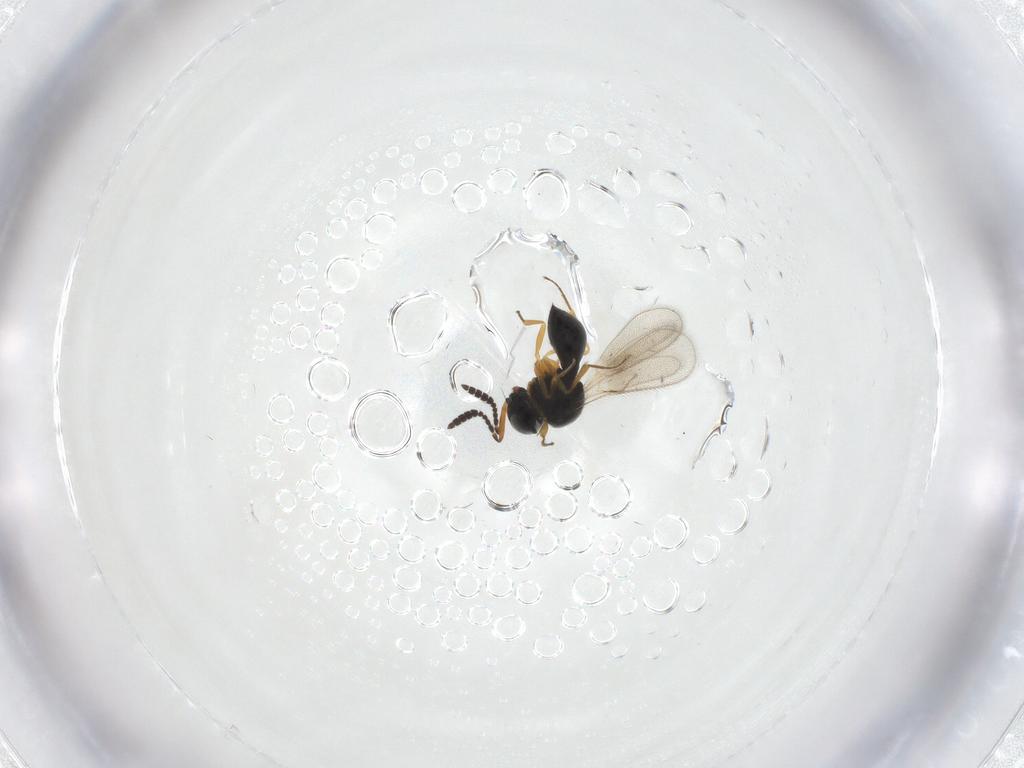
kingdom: Animalia
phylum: Arthropoda
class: Insecta
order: Hymenoptera
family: Scelionidae
